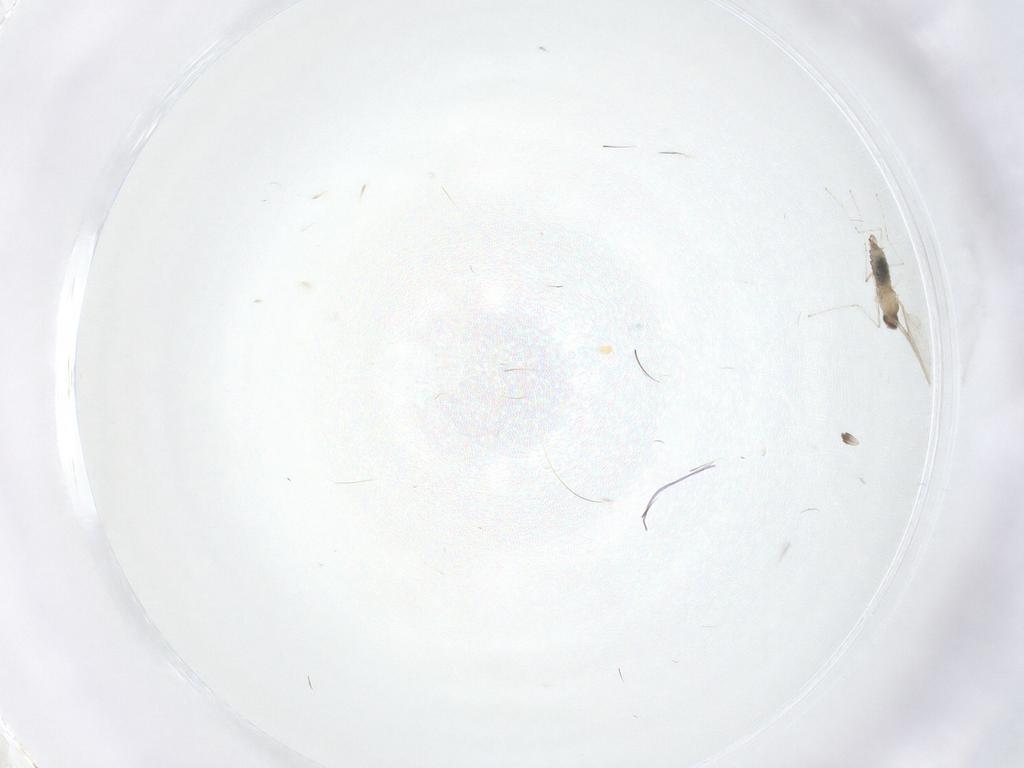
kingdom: Animalia
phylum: Arthropoda
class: Insecta
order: Diptera
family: Cecidomyiidae
